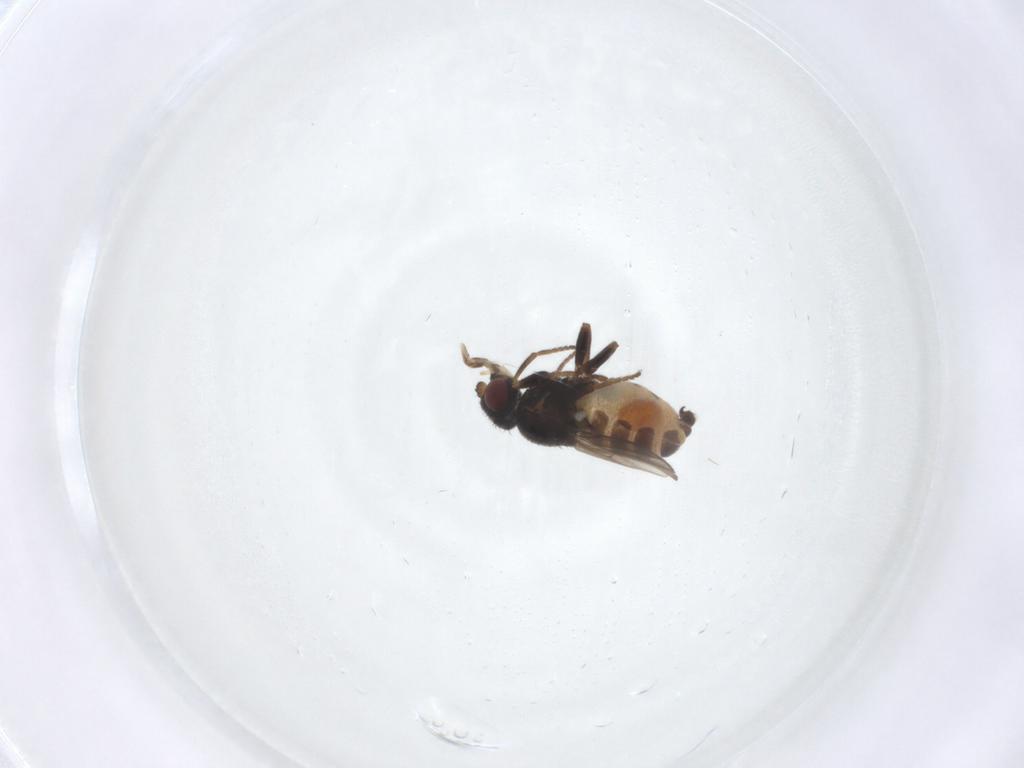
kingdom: Animalia
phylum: Arthropoda
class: Insecta
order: Diptera
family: Chloropidae
